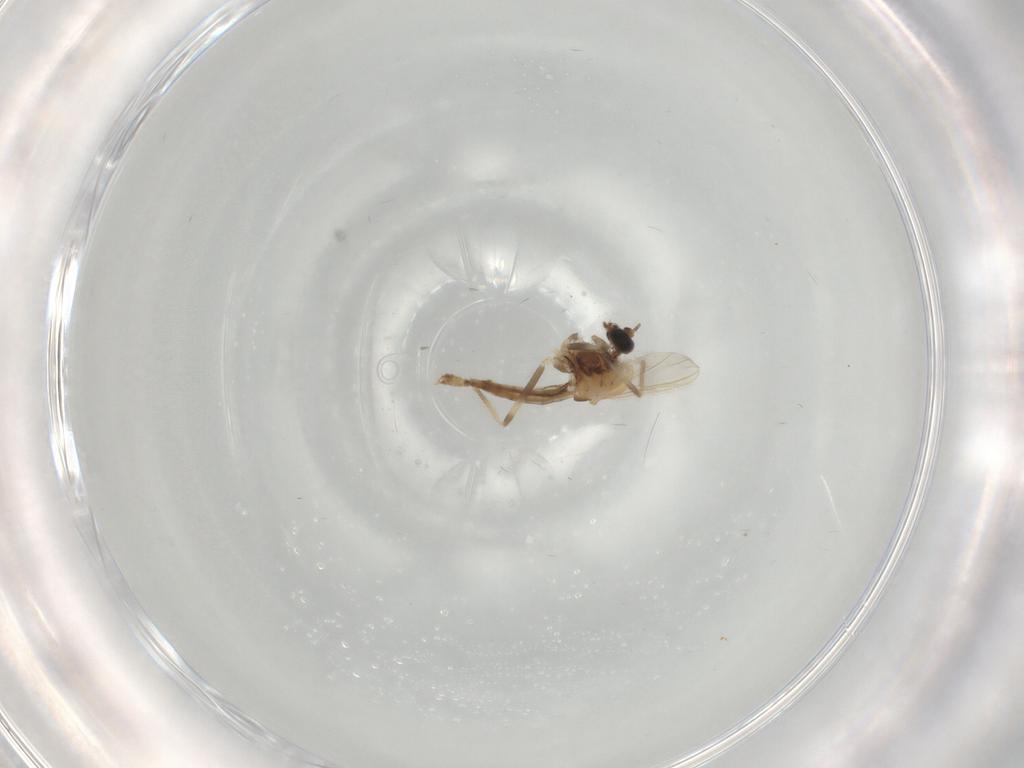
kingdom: Animalia
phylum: Arthropoda
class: Insecta
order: Diptera
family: Chironomidae
